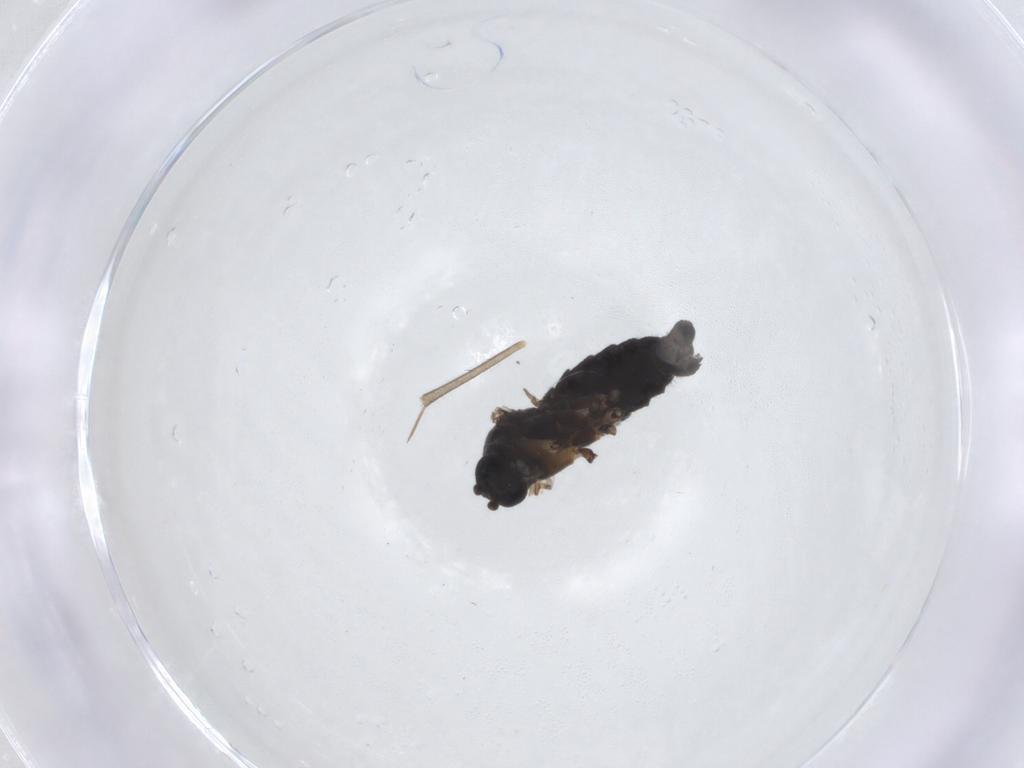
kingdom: Animalia
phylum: Arthropoda
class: Insecta
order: Diptera
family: Sciaridae
